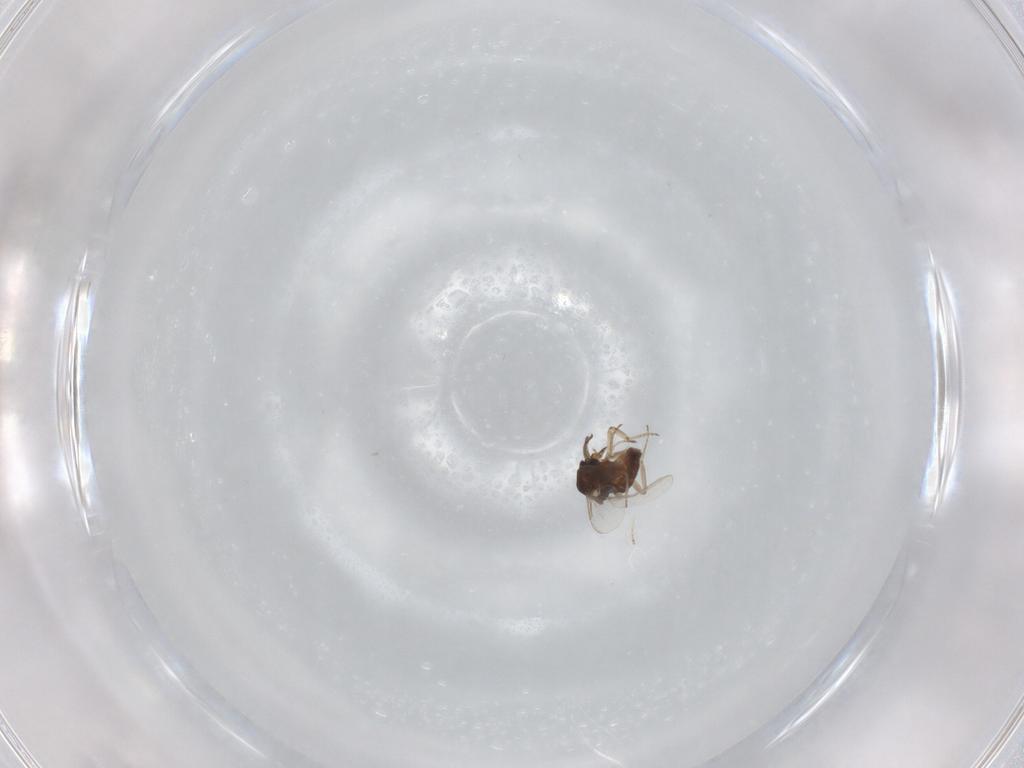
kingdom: Animalia
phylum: Arthropoda
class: Insecta
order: Diptera
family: Ceratopogonidae
